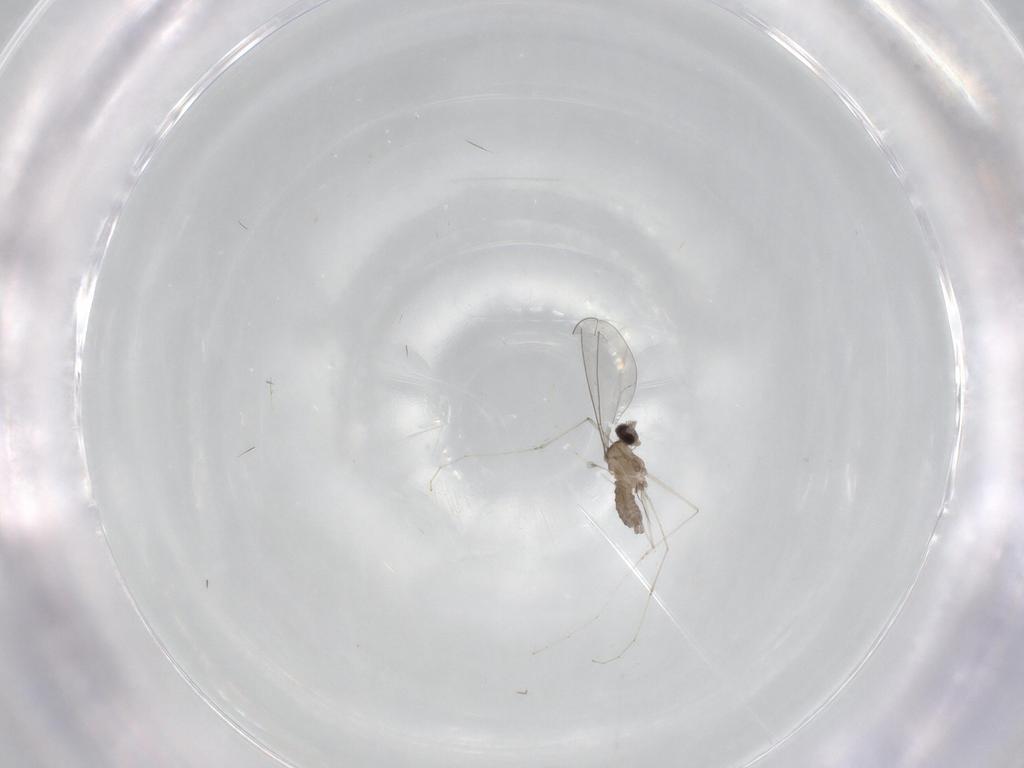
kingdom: Animalia
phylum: Arthropoda
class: Insecta
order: Diptera
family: Cecidomyiidae
